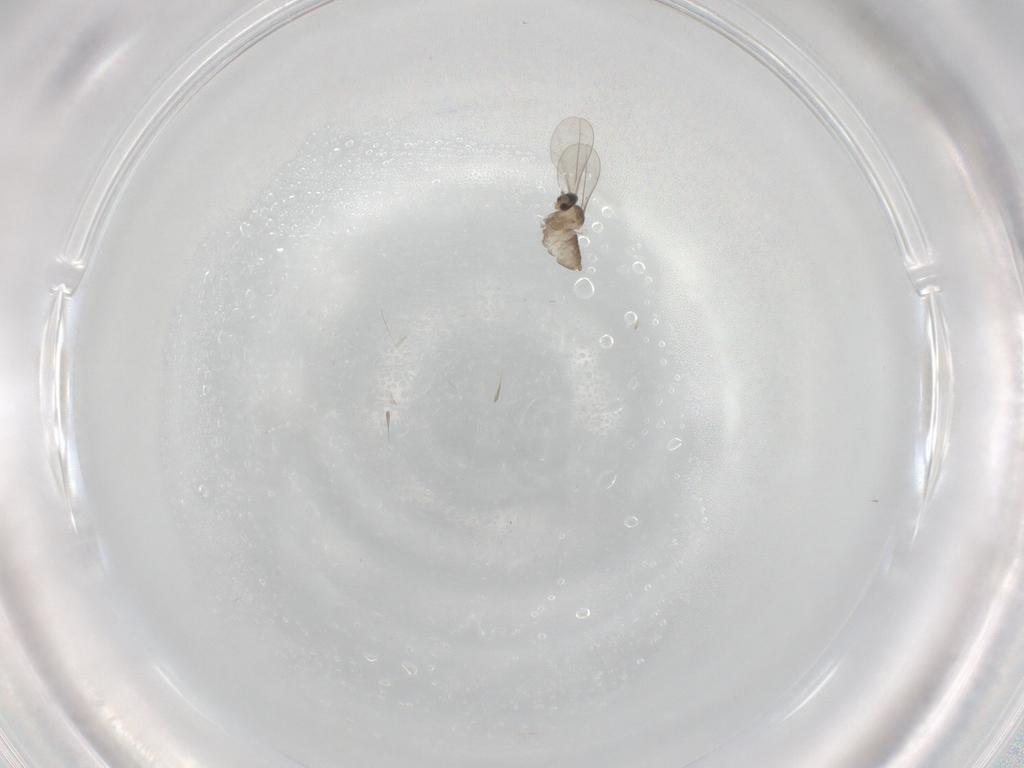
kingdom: Animalia
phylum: Arthropoda
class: Insecta
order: Diptera
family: Cecidomyiidae
